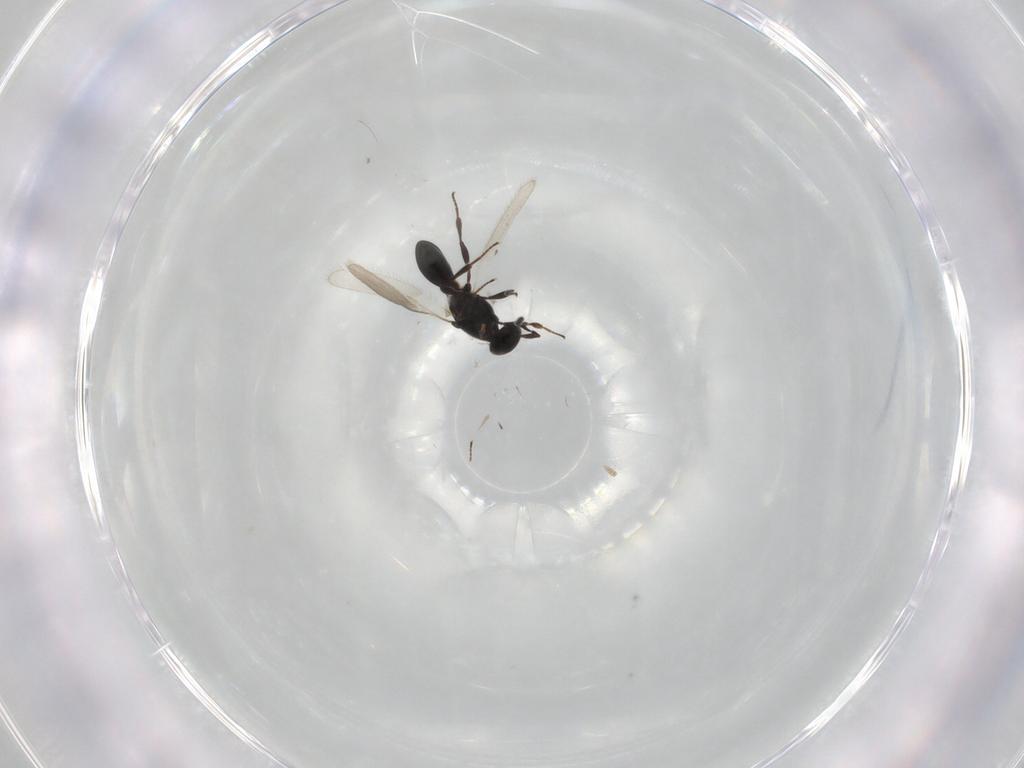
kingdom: Animalia
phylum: Arthropoda
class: Insecta
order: Hymenoptera
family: Platygastridae
